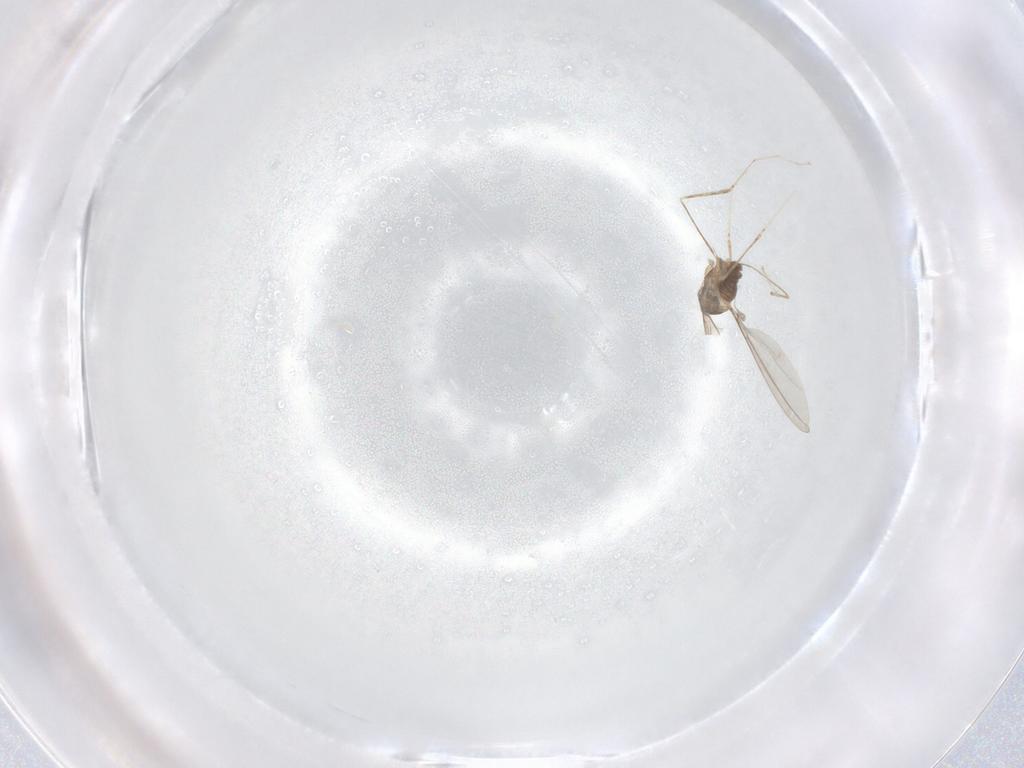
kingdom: Animalia
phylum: Arthropoda
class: Insecta
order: Diptera
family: Cecidomyiidae
